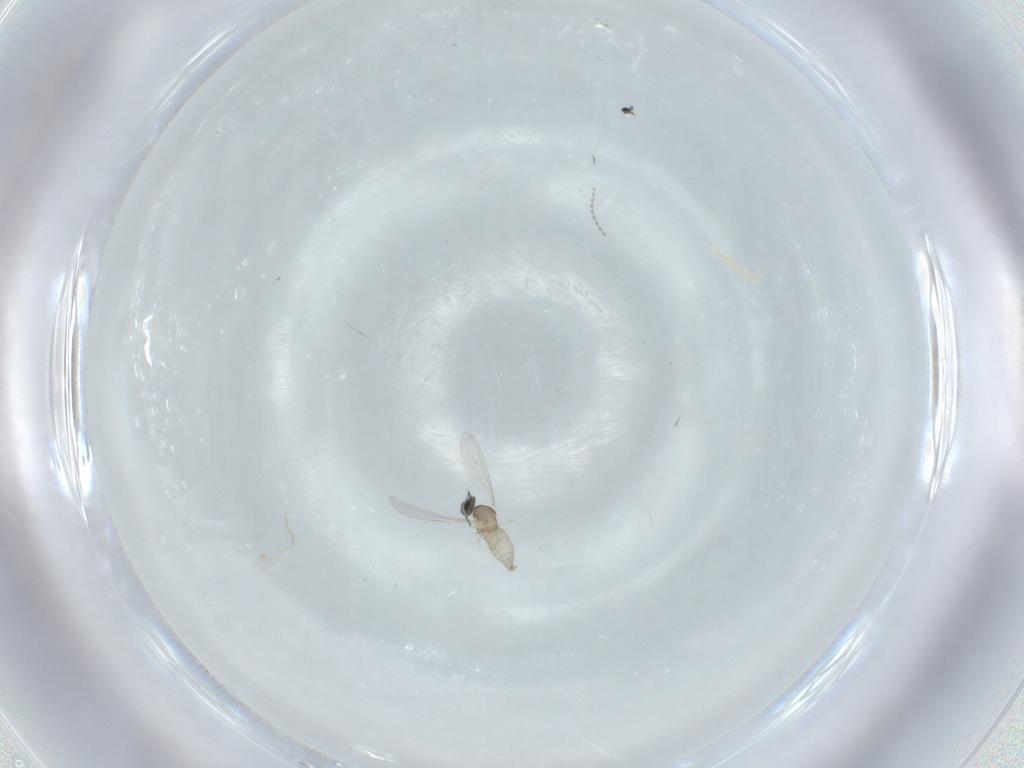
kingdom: Animalia
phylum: Arthropoda
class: Insecta
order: Diptera
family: Cecidomyiidae
